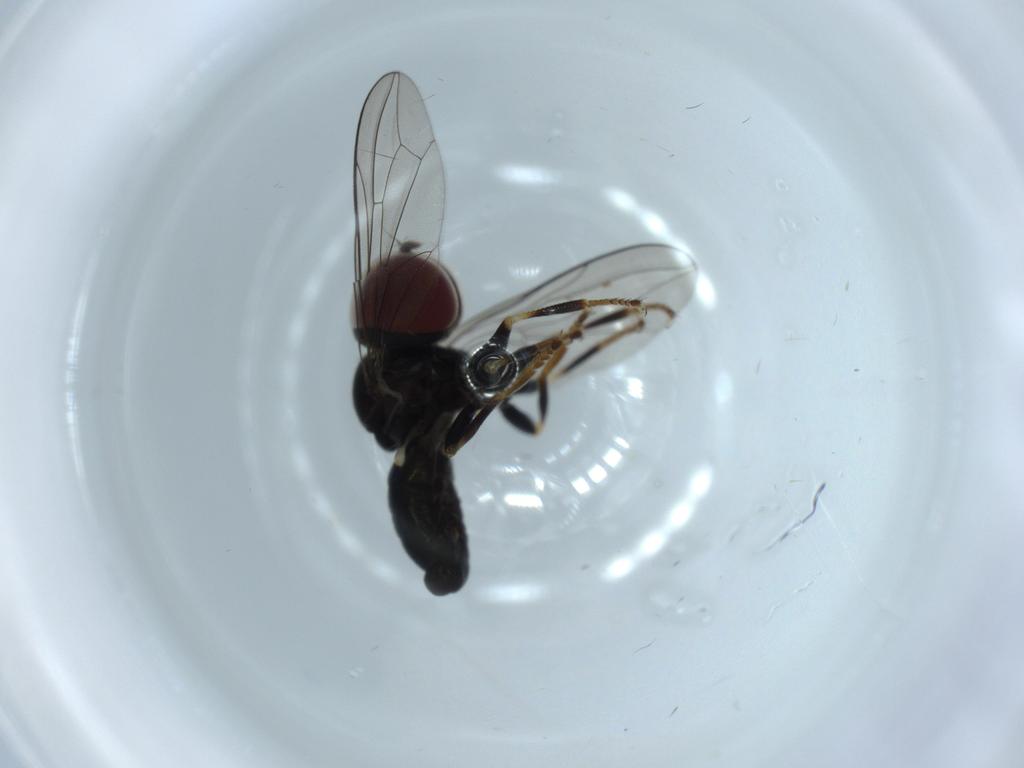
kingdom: Animalia
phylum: Arthropoda
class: Insecta
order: Diptera
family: Pipunculidae
